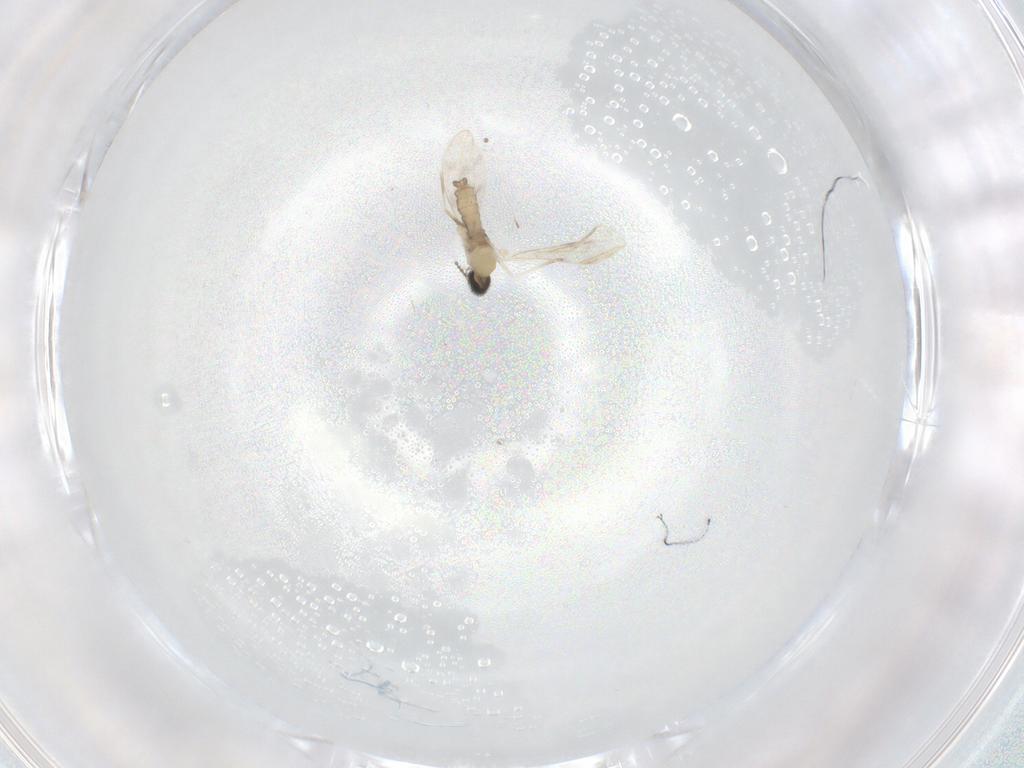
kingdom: Animalia
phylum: Arthropoda
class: Insecta
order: Diptera
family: Cecidomyiidae
